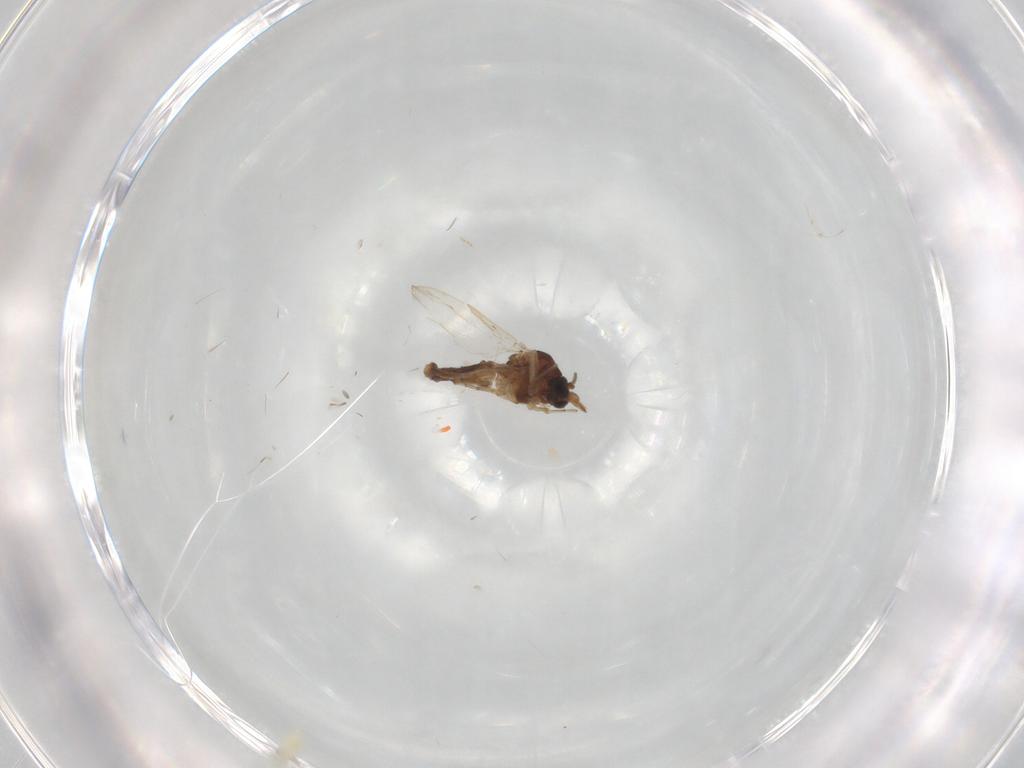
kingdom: Animalia
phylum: Arthropoda
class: Insecta
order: Diptera
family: Ceratopogonidae
